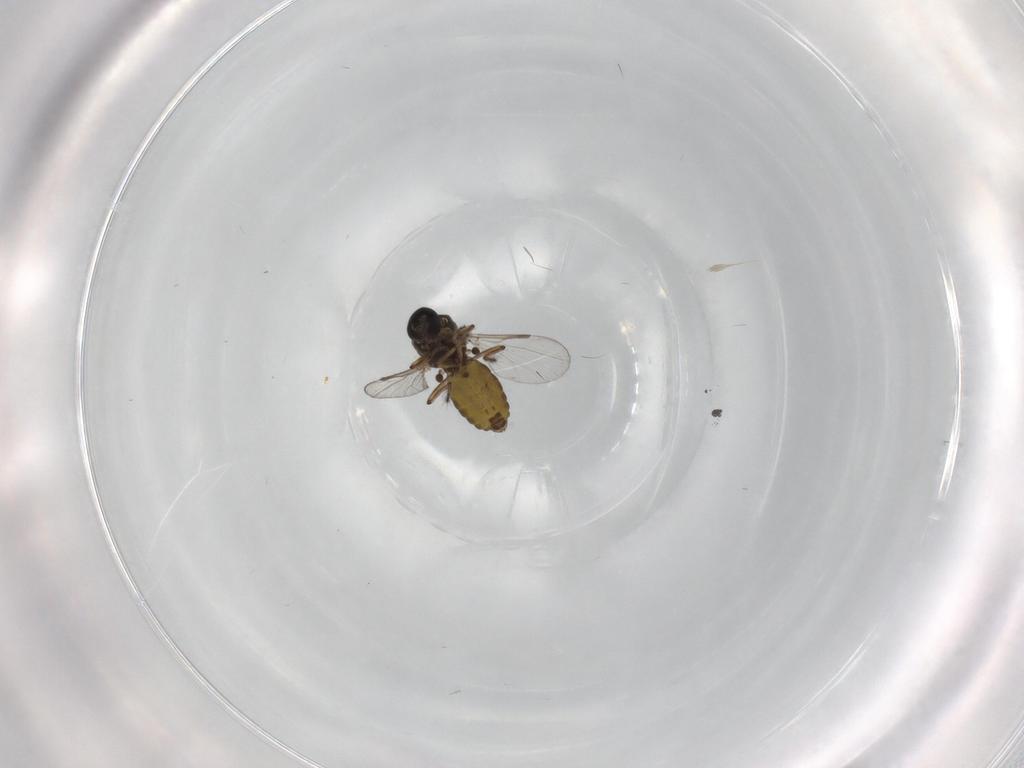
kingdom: Animalia
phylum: Arthropoda
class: Insecta
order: Diptera
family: Ceratopogonidae
